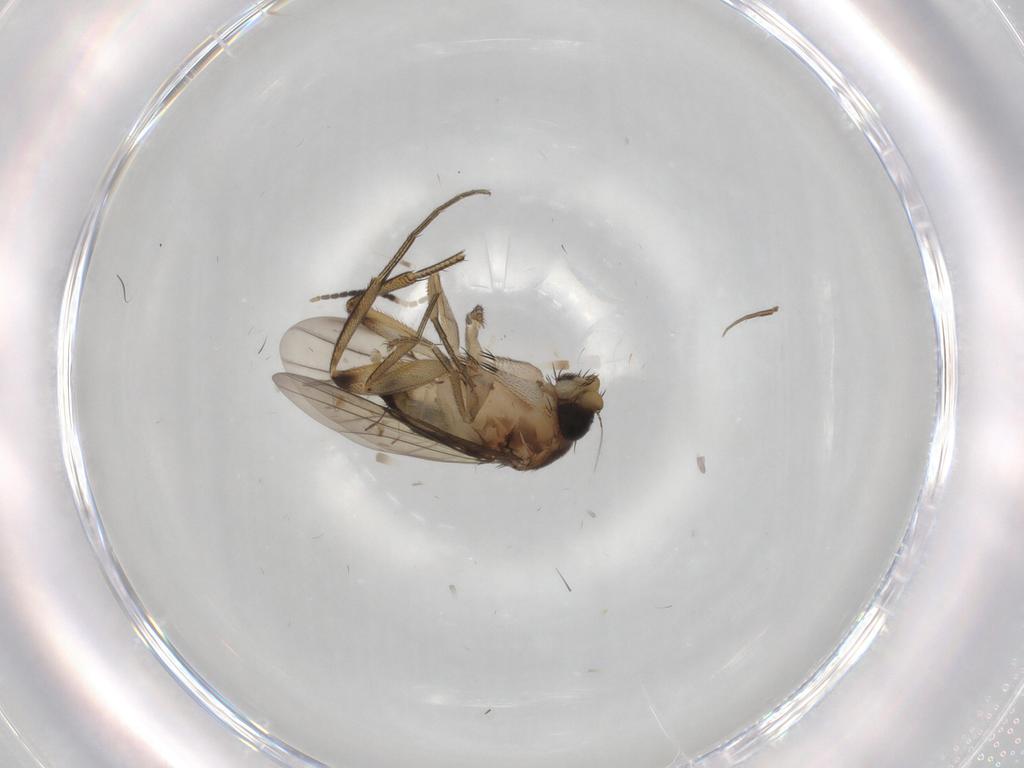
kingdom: Animalia
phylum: Arthropoda
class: Insecta
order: Diptera
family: Phoridae
